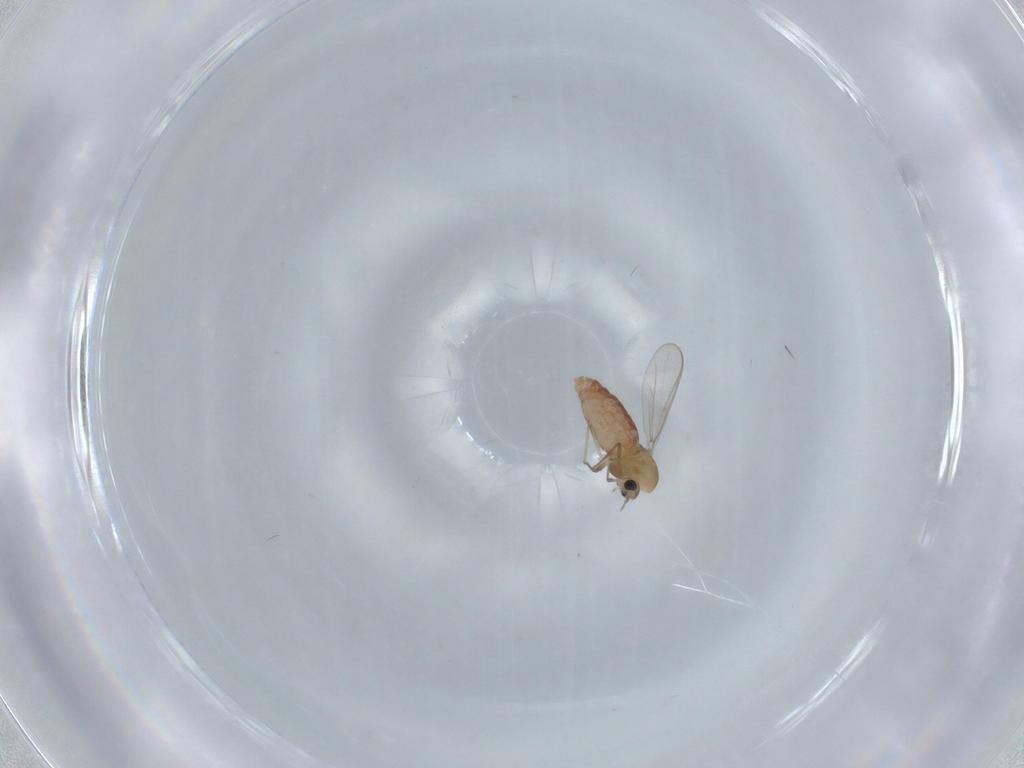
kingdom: Animalia
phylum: Arthropoda
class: Insecta
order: Diptera
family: Chironomidae
